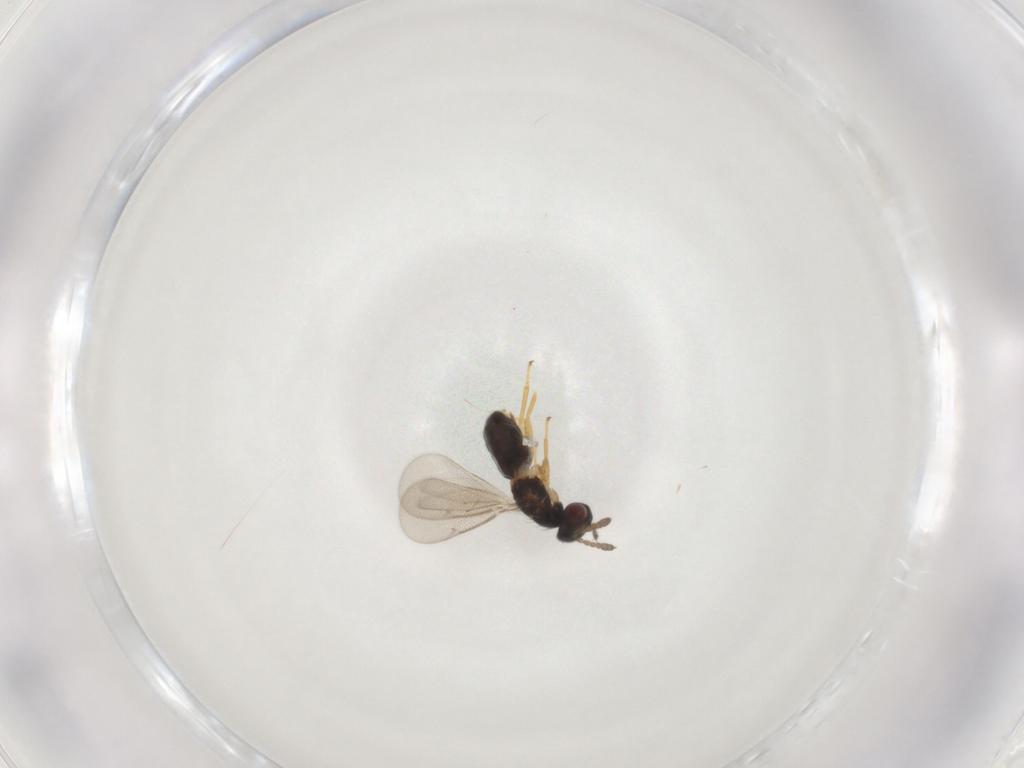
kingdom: Animalia
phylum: Arthropoda
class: Insecta
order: Hymenoptera
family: Eulophidae
